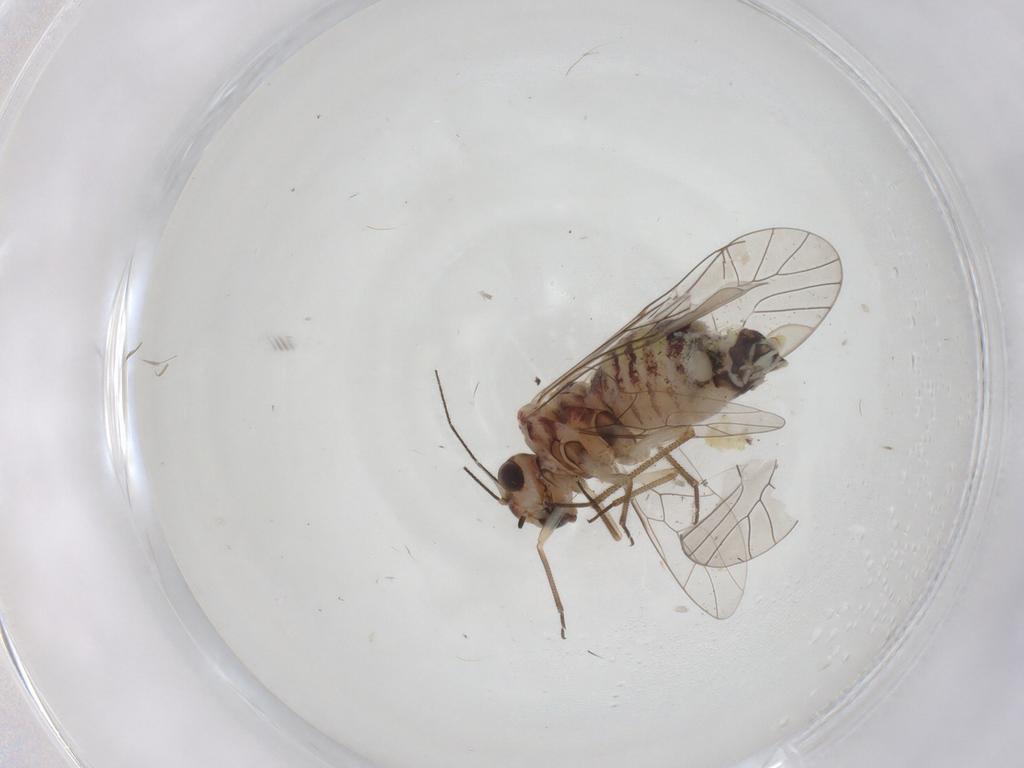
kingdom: Animalia
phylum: Arthropoda
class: Insecta
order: Psocodea
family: Psocidae
